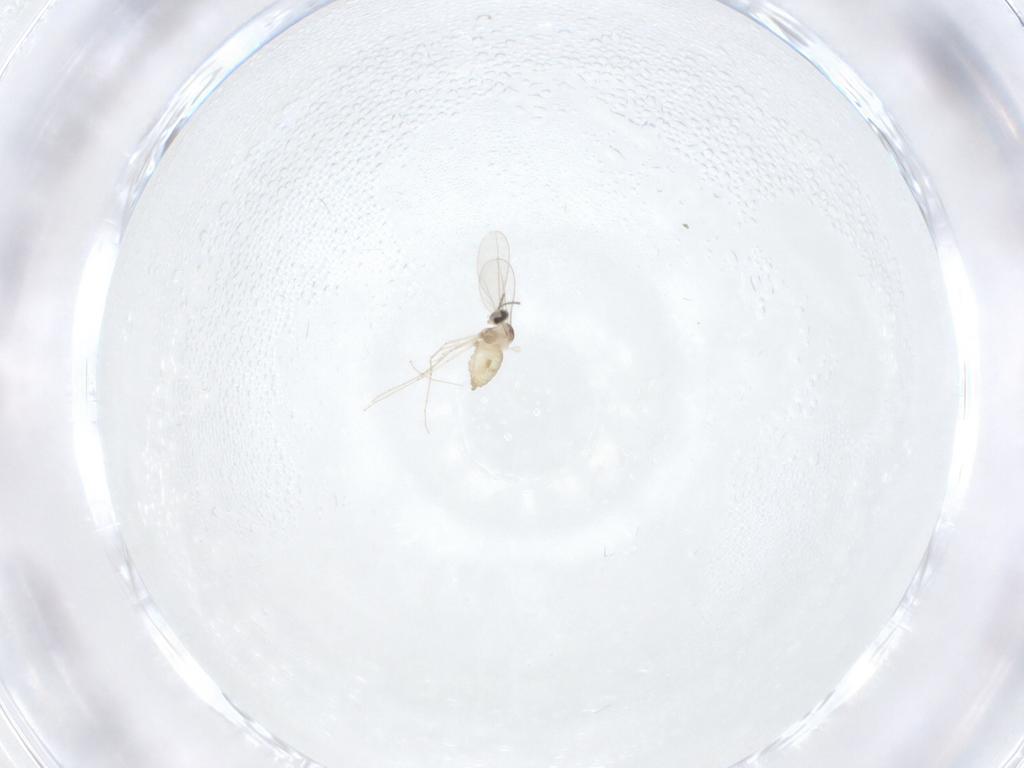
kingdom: Animalia
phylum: Arthropoda
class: Insecta
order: Diptera
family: Cecidomyiidae
